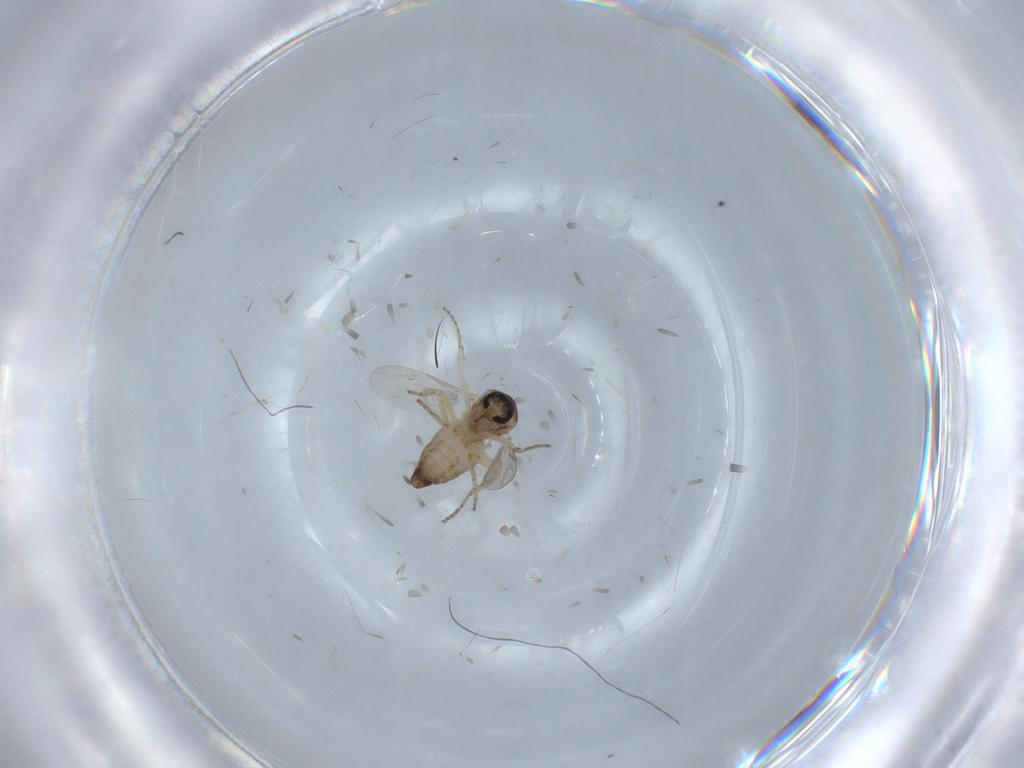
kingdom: Animalia
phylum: Arthropoda
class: Insecta
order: Diptera
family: Ceratopogonidae
